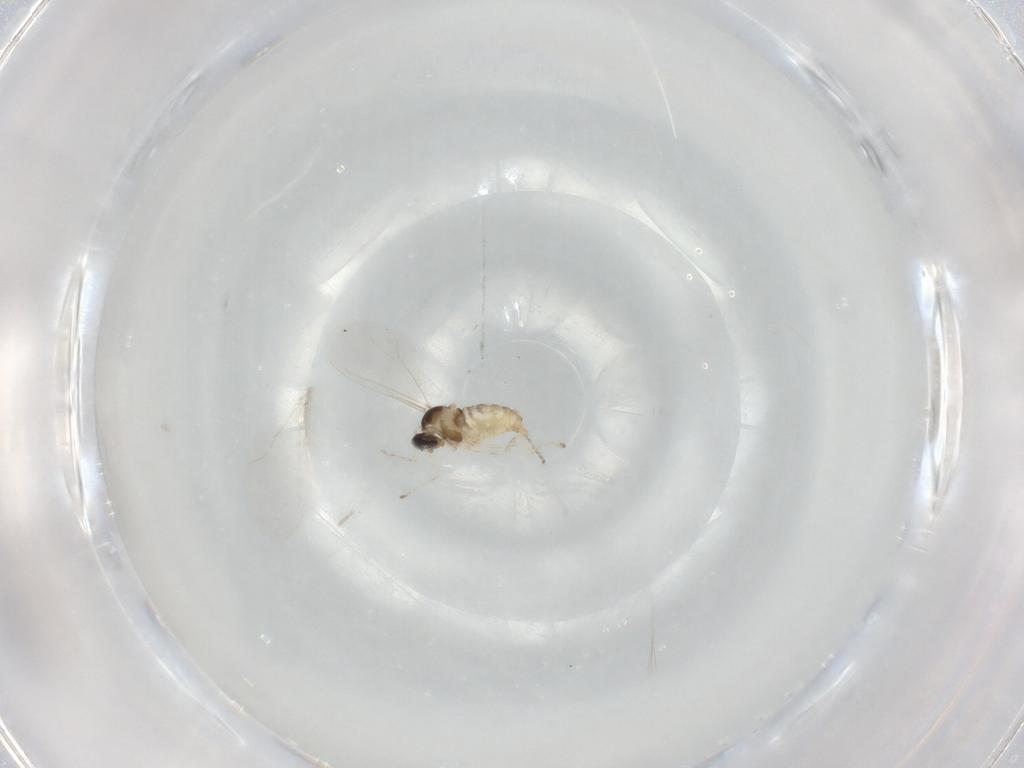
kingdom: Animalia
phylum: Arthropoda
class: Insecta
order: Diptera
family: Cecidomyiidae
